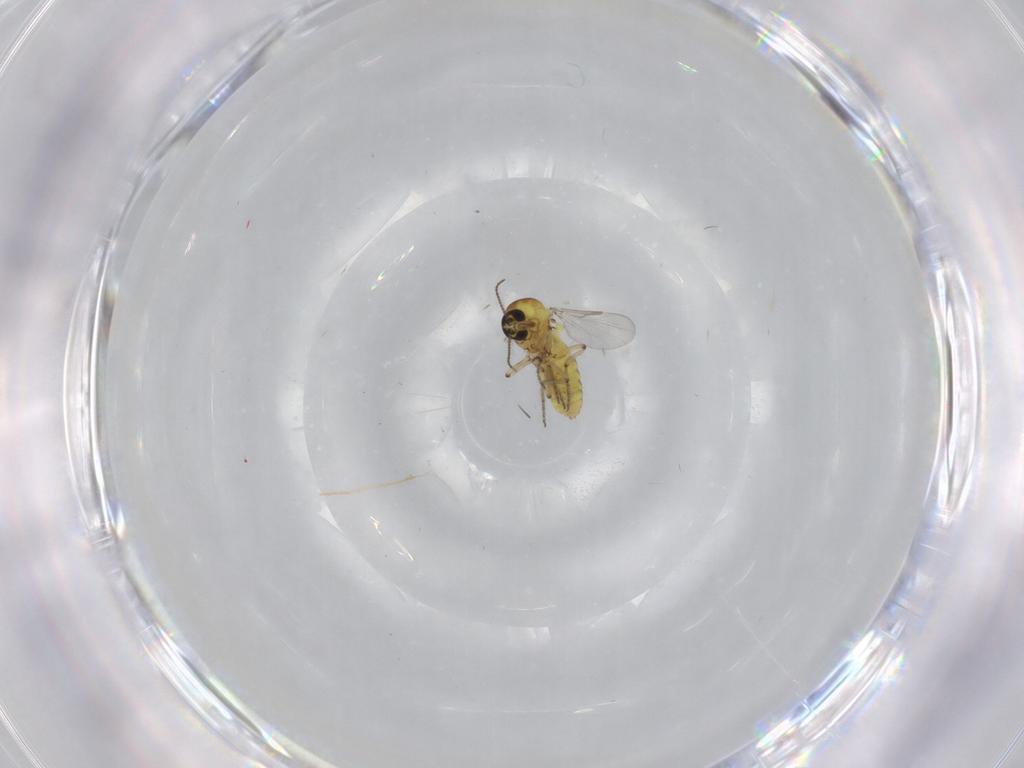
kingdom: Animalia
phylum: Arthropoda
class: Insecta
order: Diptera
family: Ceratopogonidae
